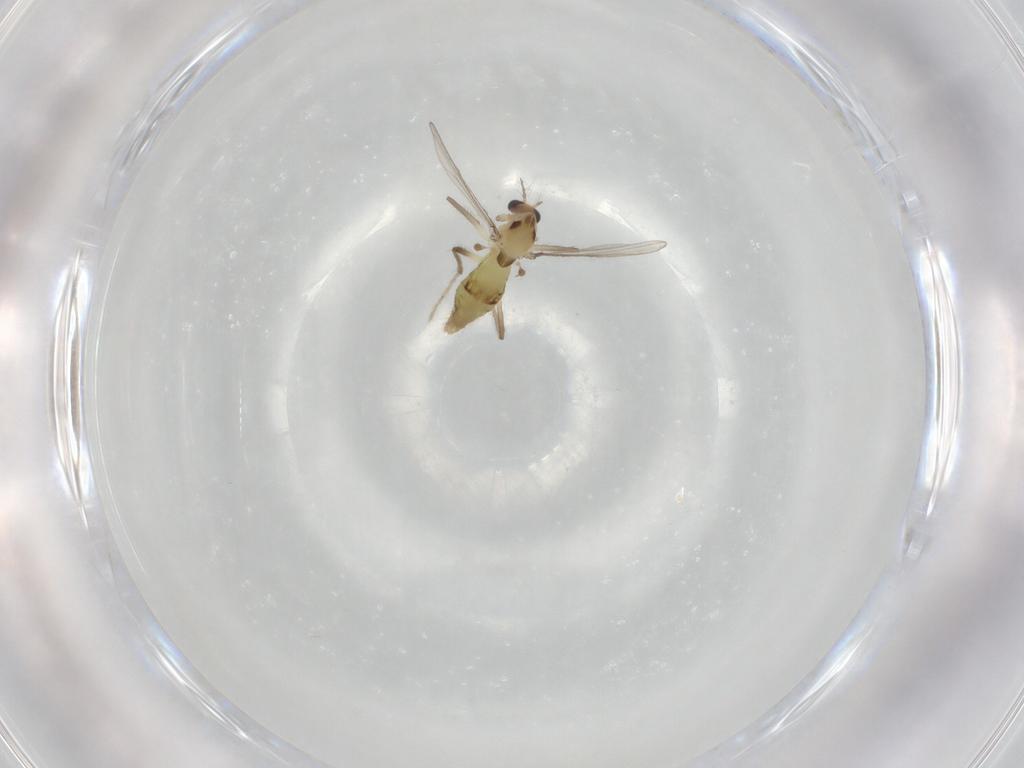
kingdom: Animalia
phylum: Arthropoda
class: Insecta
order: Diptera
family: Chironomidae
